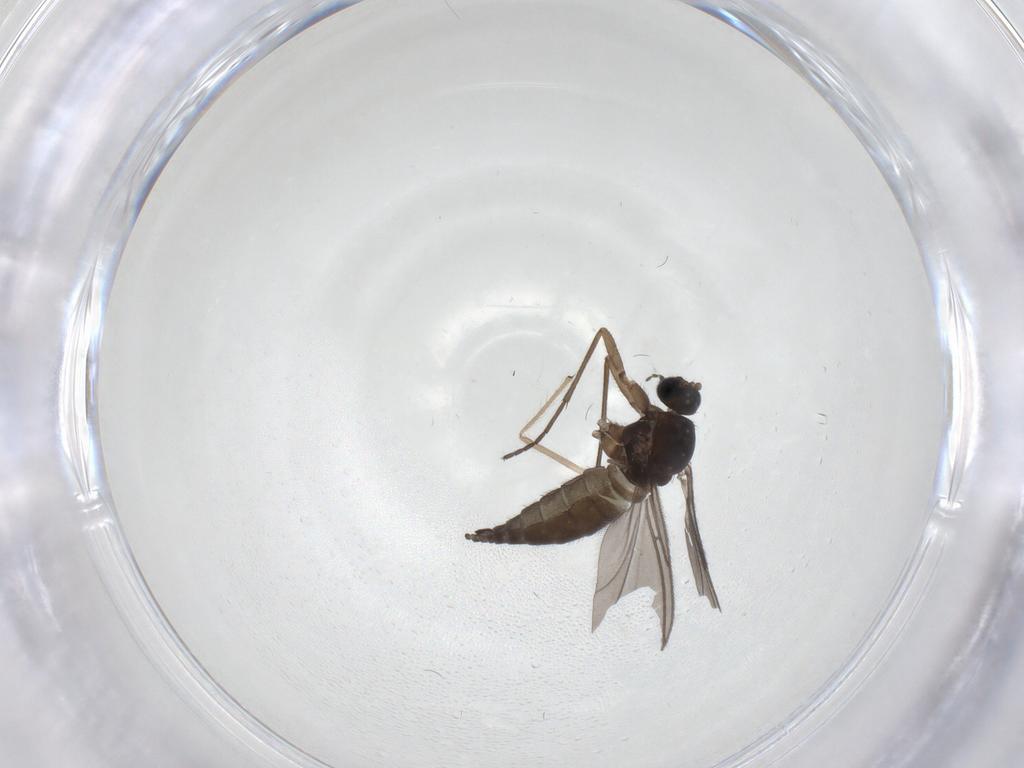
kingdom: Animalia
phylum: Arthropoda
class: Insecta
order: Diptera
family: Sciaridae
